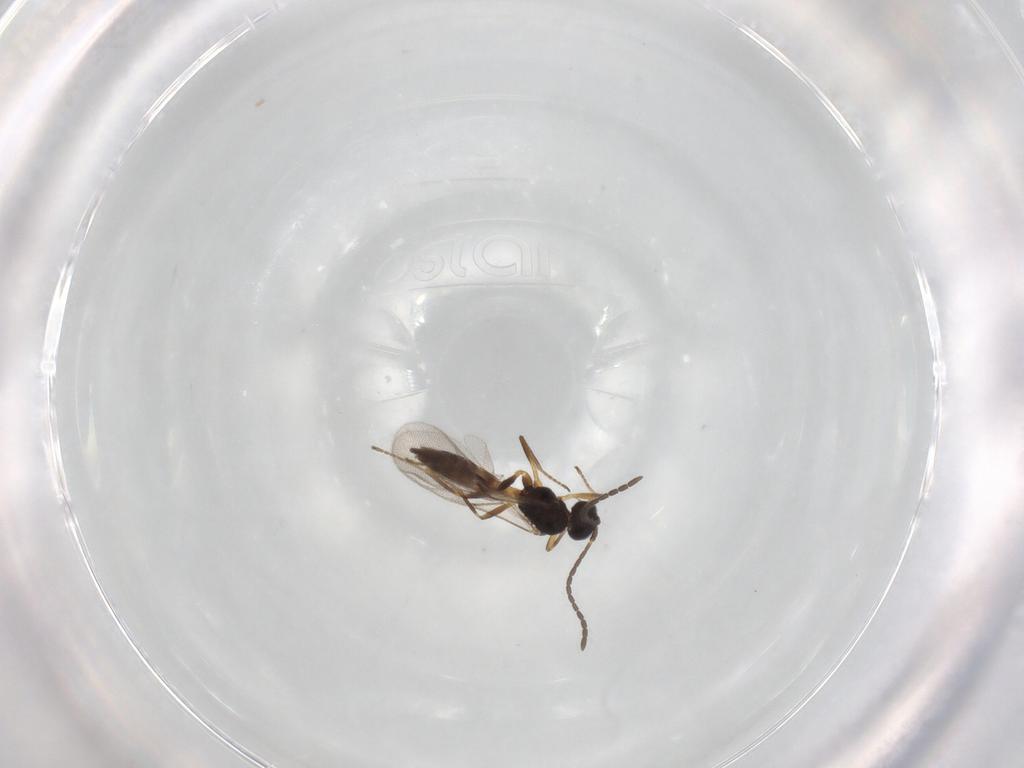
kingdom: Animalia
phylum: Arthropoda
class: Insecta
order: Hymenoptera
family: Braconidae
